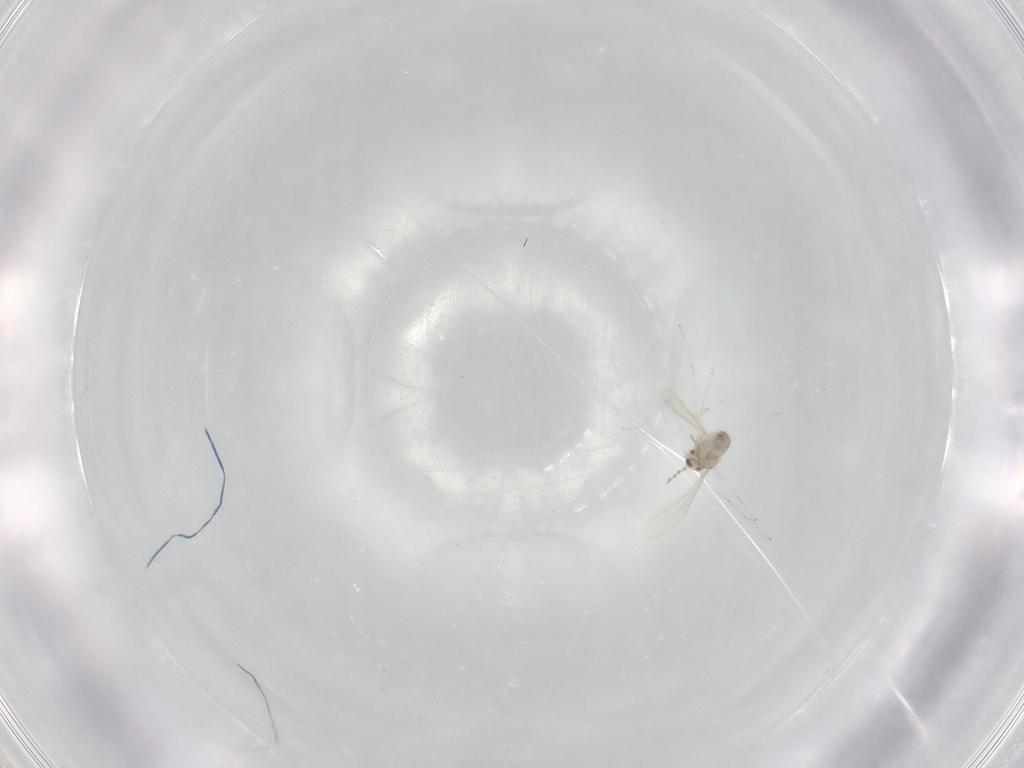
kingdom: Animalia
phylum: Arthropoda
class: Insecta
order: Diptera
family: Chironomidae
